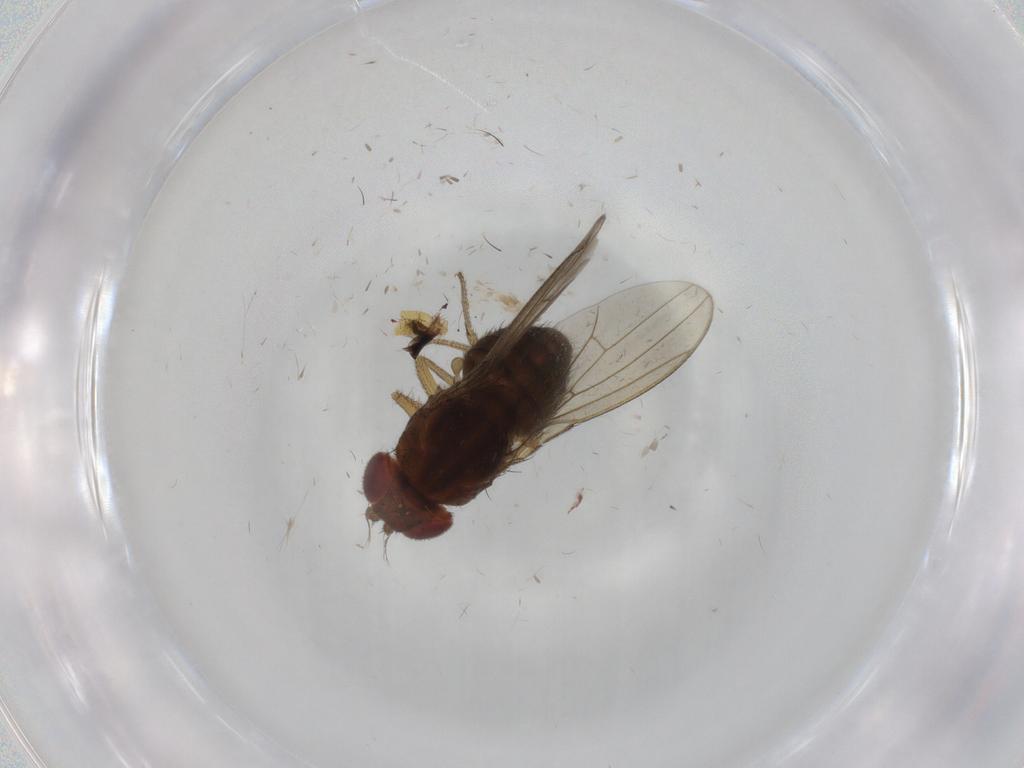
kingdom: Animalia
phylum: Arthropoda
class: Insecta
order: Diptera
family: Drosophilidae
